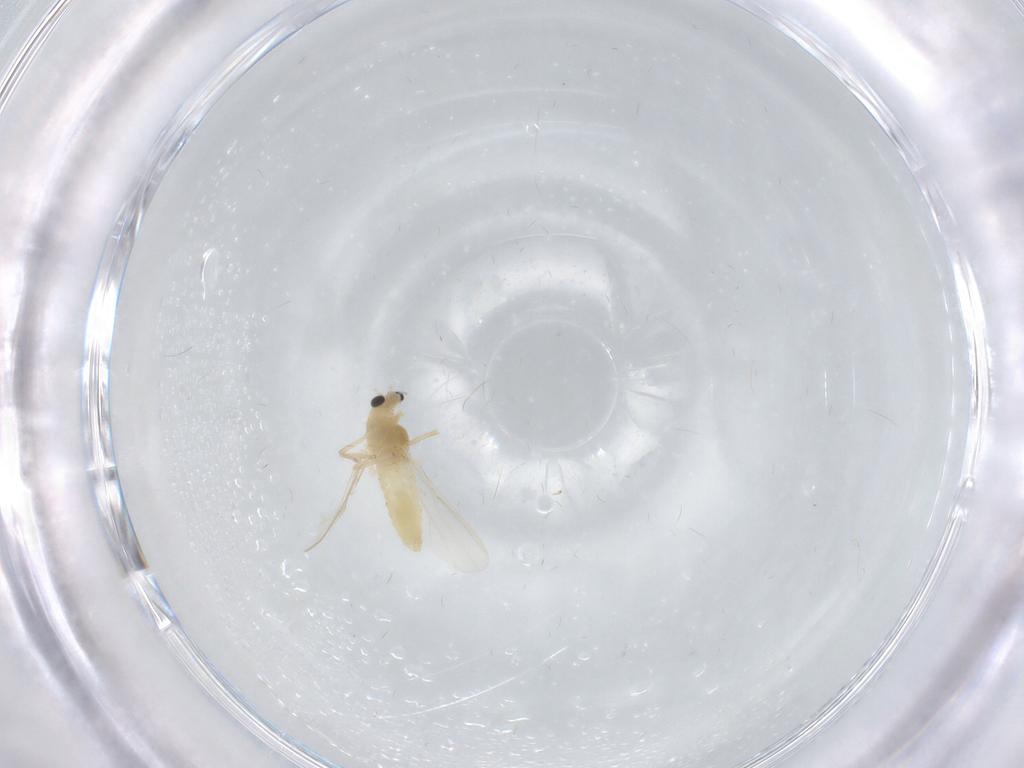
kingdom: Animalia
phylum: Arthropoda
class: Insecta
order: Diptera
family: Chironomidae
